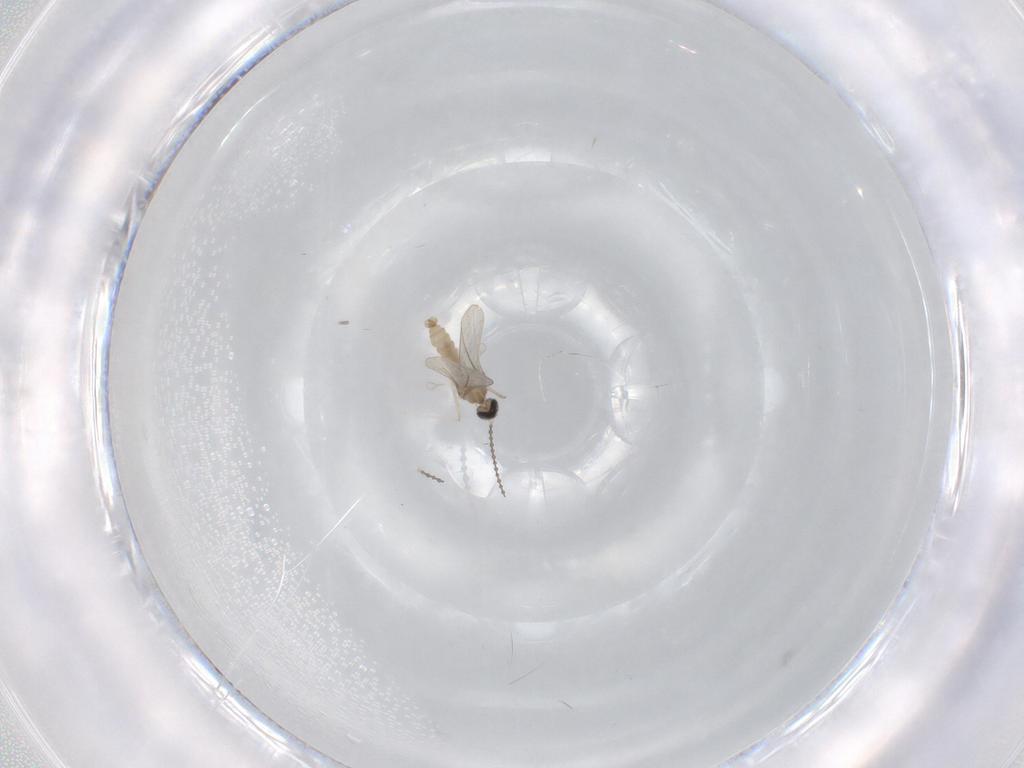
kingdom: Animalia
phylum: Arthropoda
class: Insecta
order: Diptera
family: Cecidomyiidae
